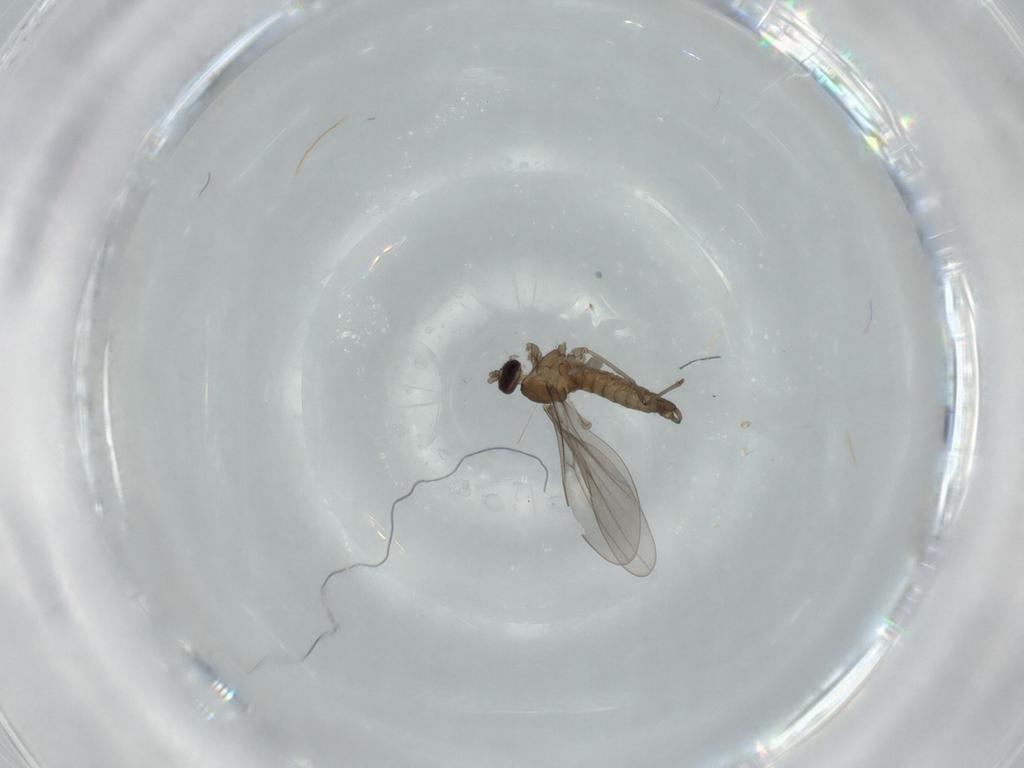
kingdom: Animalia
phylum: Arthropoda
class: Insecta
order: Diptera
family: Cecidomyiidae
